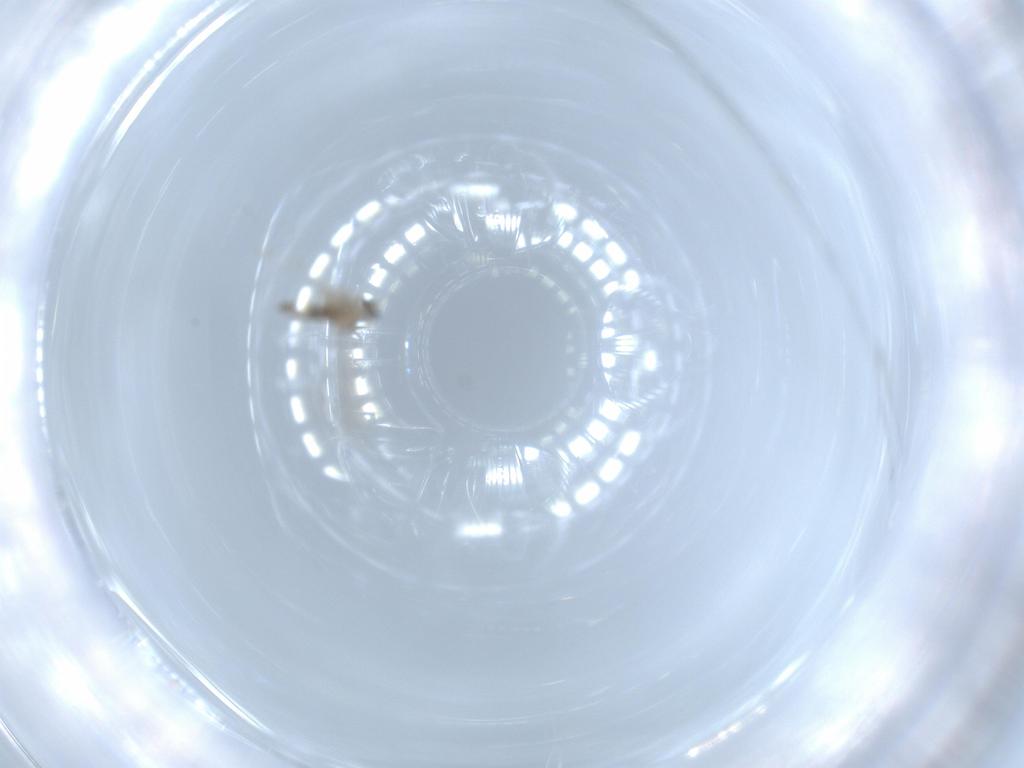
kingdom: Animalia
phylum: Arthropoda
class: Insecta
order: Diptera
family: Cecidomyiidae
